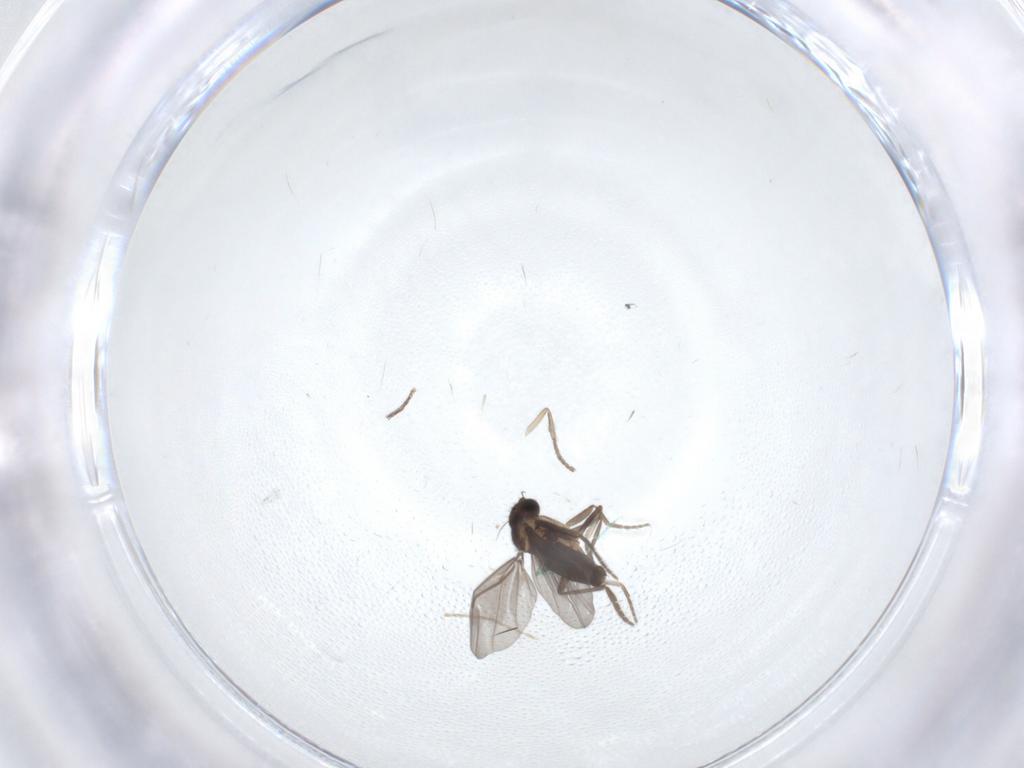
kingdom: Animalia
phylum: Arthropoda
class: Insecta
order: Diptera
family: Phoridae
